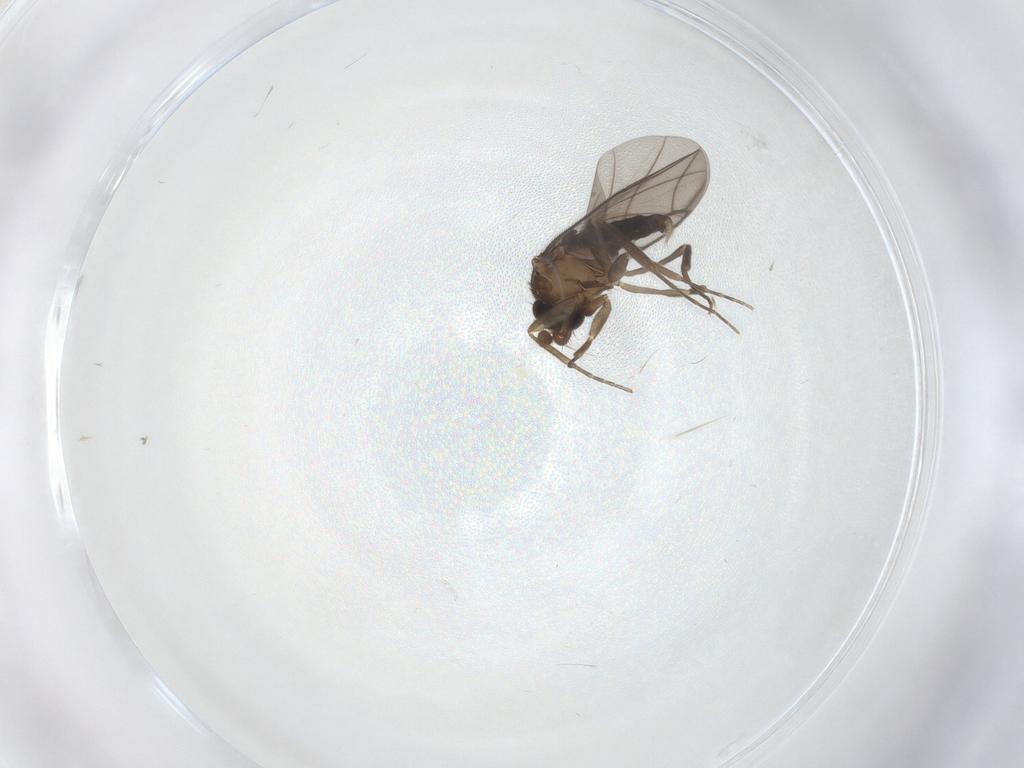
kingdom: Animalia
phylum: Arthropoda
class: Insecta
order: Diptera
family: Psychodidae
